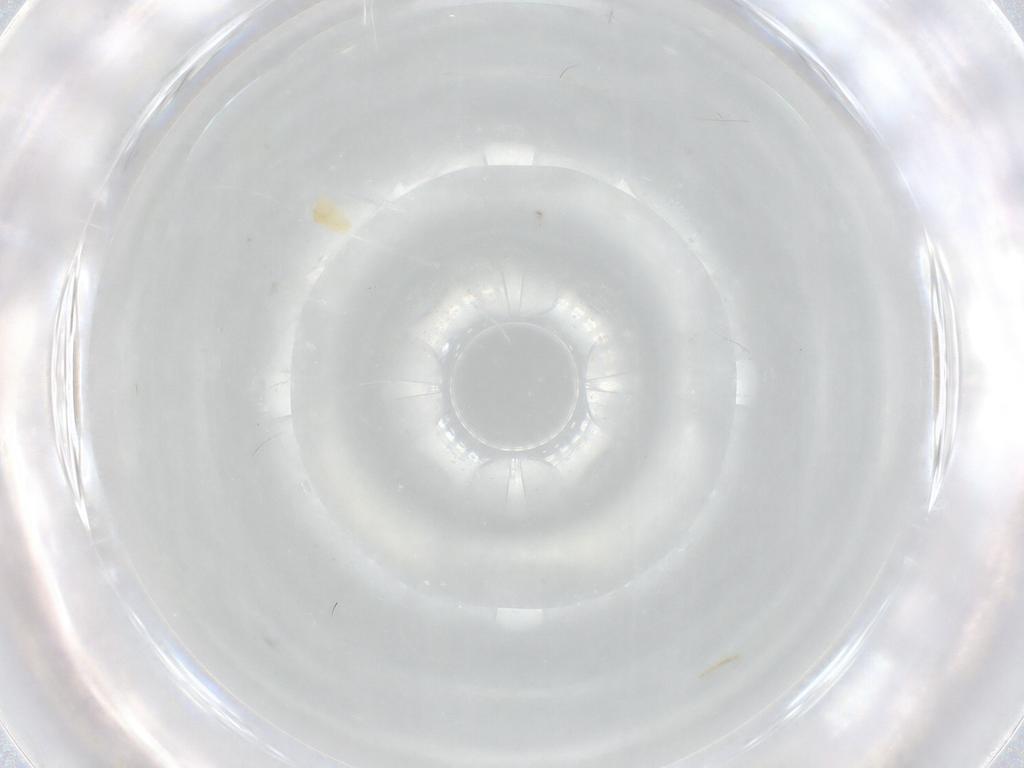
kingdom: Animalia
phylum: Arthropoda
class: Arachnida
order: Trombidiformes
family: Eupodidae
